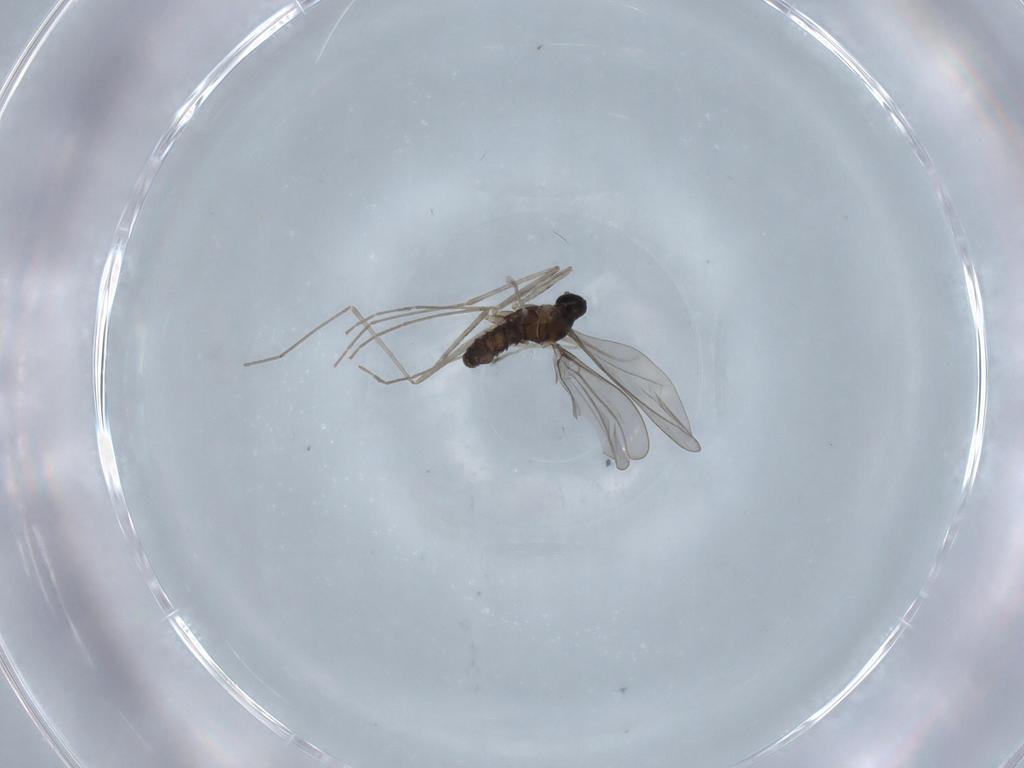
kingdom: Animalia
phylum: Arthropoda
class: Insecta
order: Diptera
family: Cecidomyiidae
